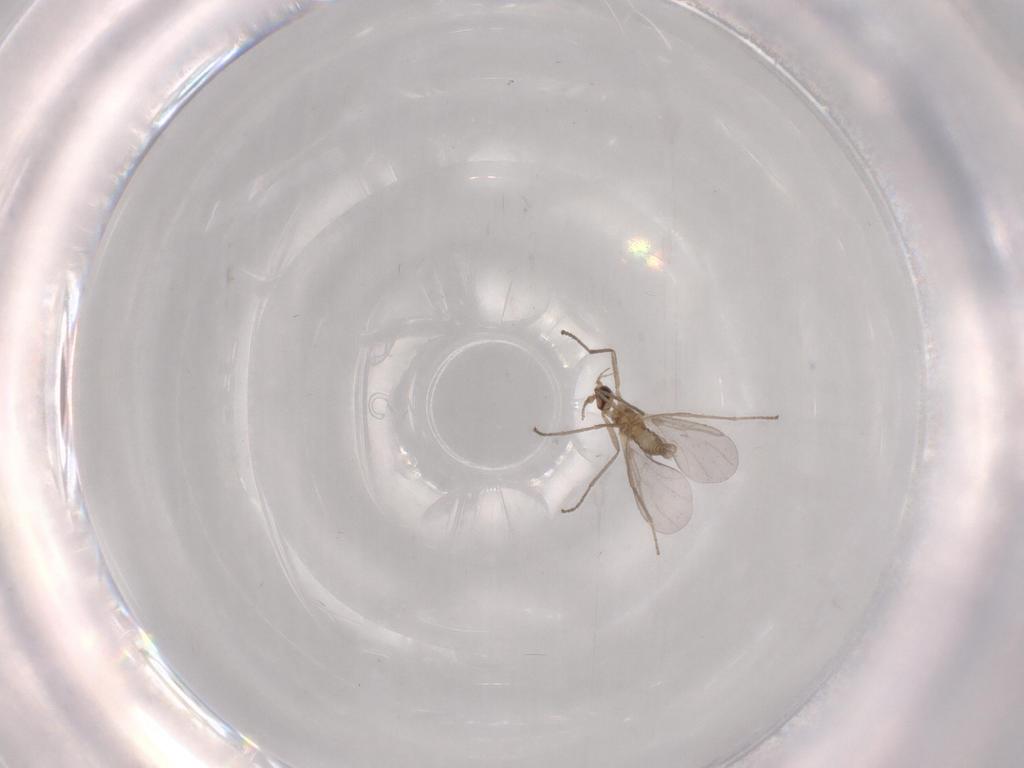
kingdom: Animalia
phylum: Arthropoda
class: Insecta
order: Diptera
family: Cecidomyiidae
